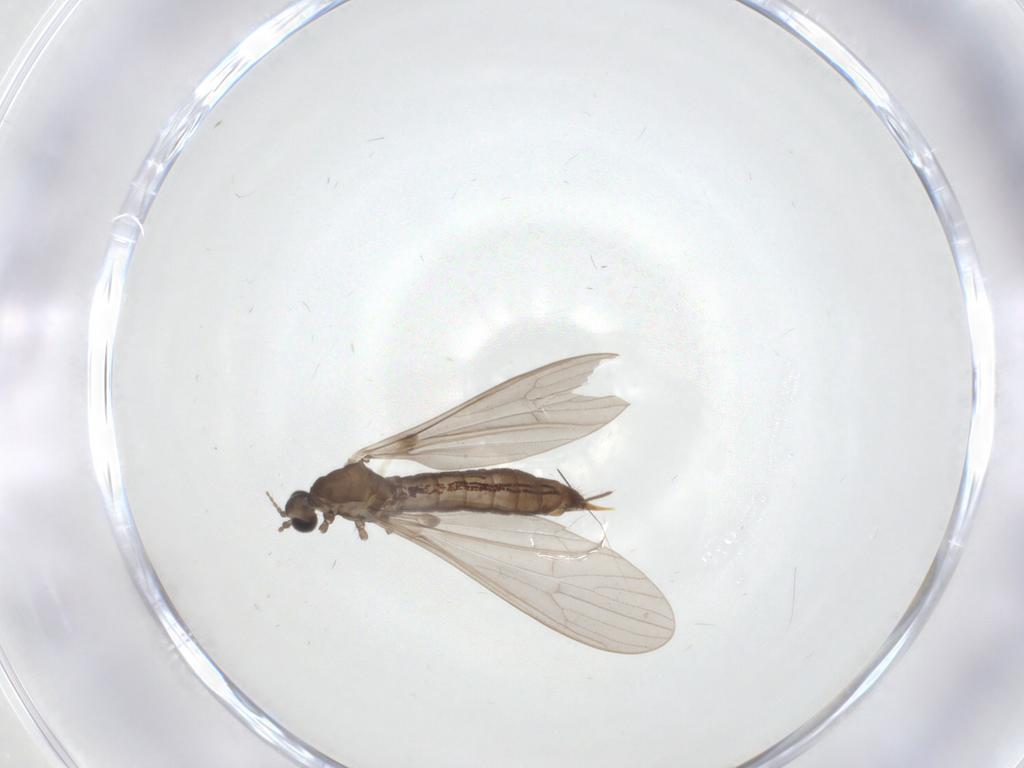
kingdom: Animalia
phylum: Arthropoda
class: Insecta
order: Diptera
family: Limoniidae
